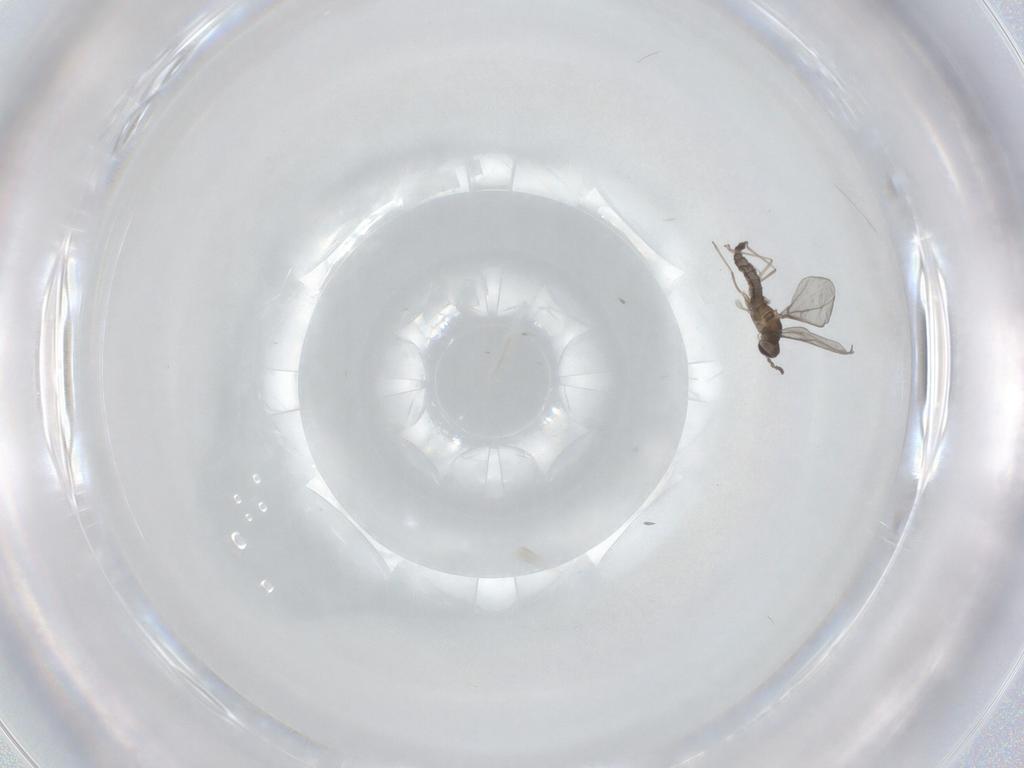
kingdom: Animalia
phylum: Arthropoda
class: Insecta
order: Diptera
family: Cecidomyiidae
